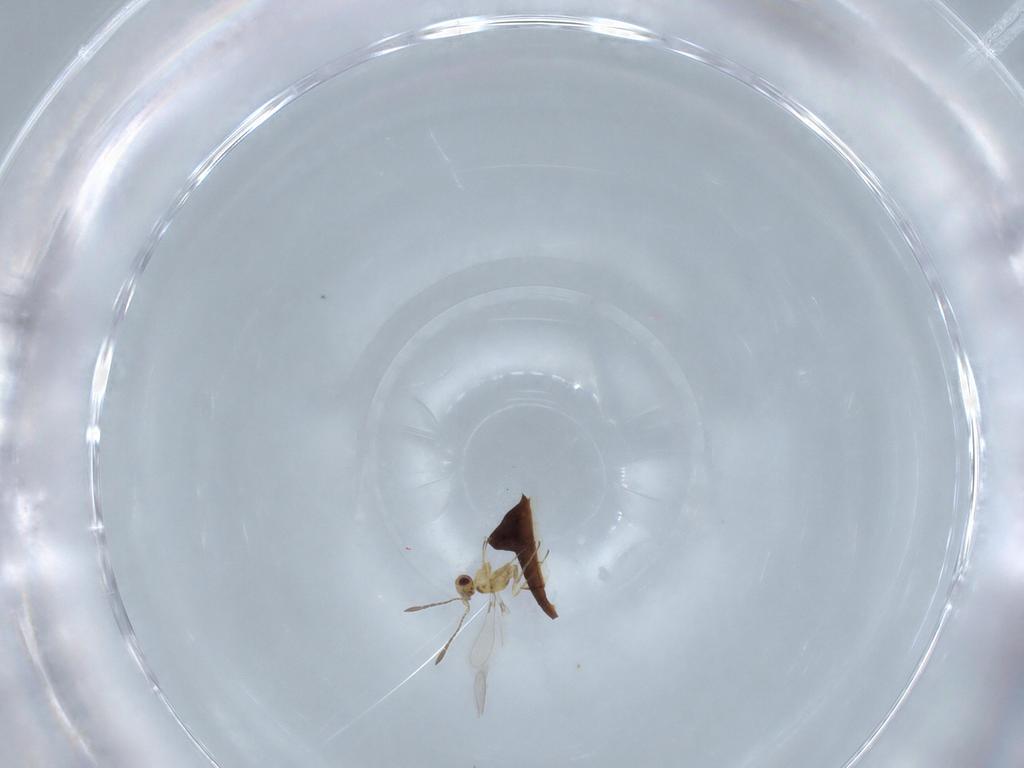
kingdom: Animalia
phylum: Arthropoda
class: Insecta
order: Hymenoptera
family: Formicidae
